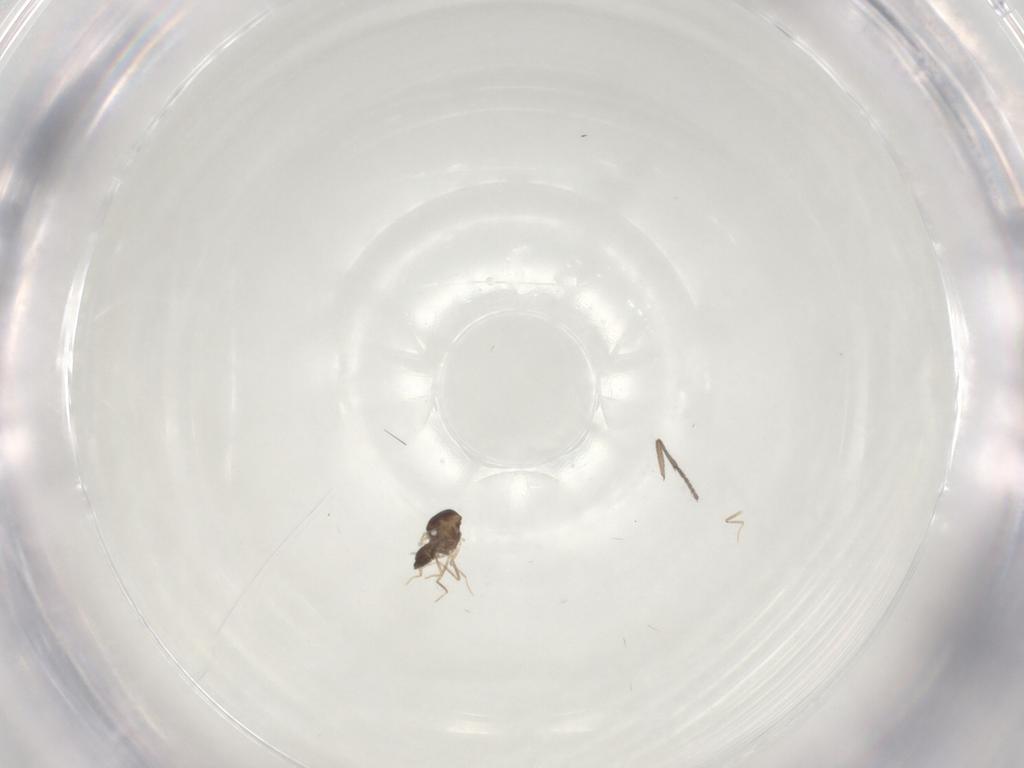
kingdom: Animalia
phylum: Arthropoda
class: Insecta
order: Diptera
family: Ceratopogonidae
